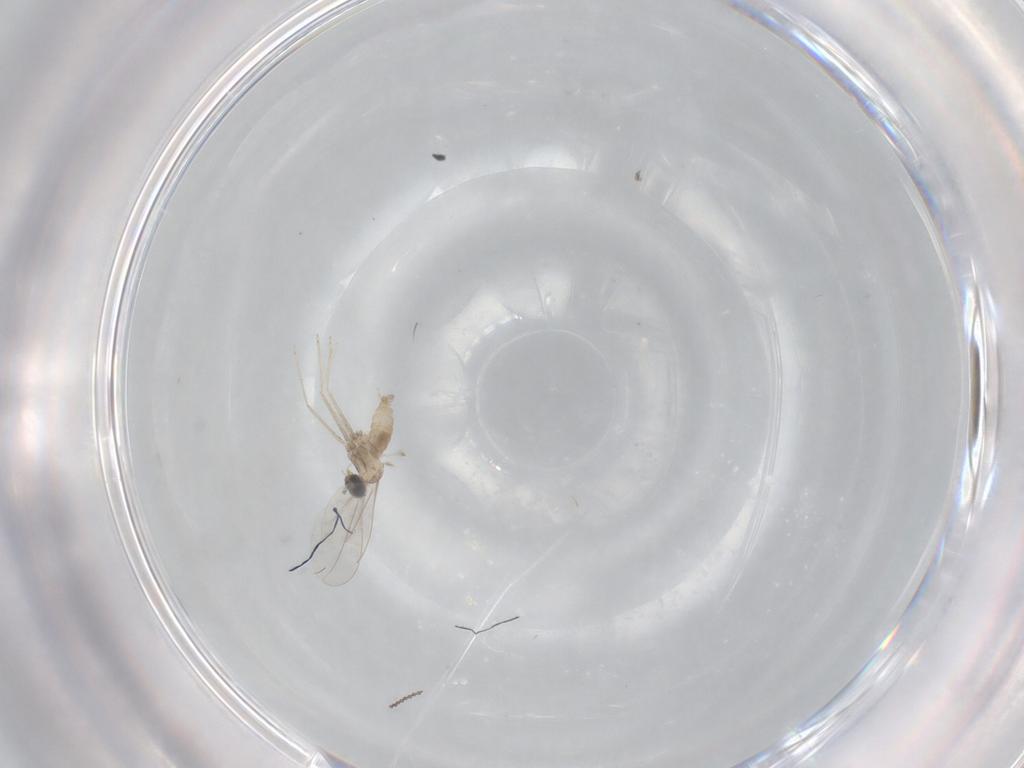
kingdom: Animalia
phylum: Arthropoda
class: Insecta
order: Diptera
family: Cecidomyiidae
